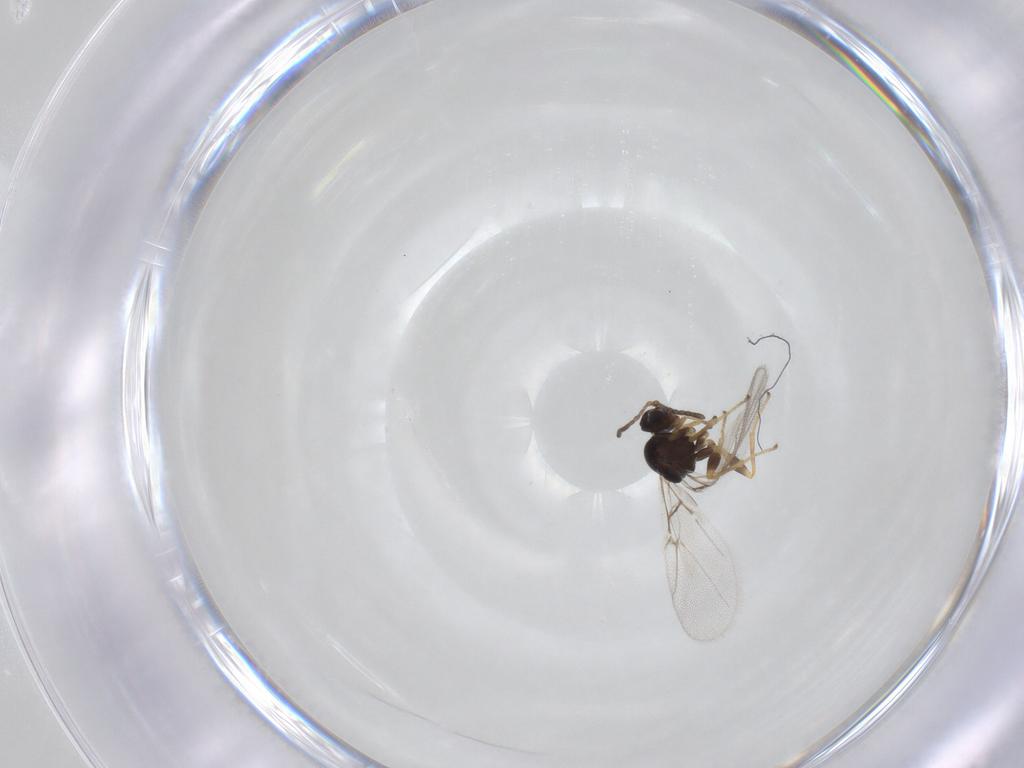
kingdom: Animalia
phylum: Arthropoda
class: Insecta
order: Hymenoptera
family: Cynipidae
